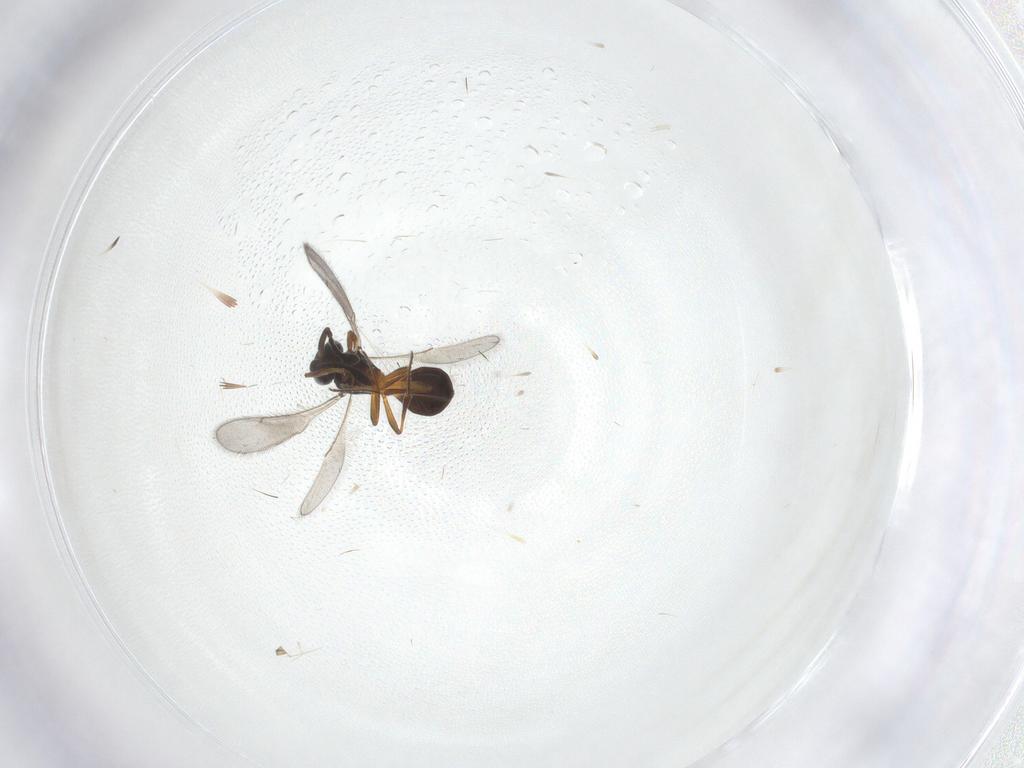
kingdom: Animalia
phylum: Arthropoda
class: Insecta
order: Hymenoptera
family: Scelionidae
